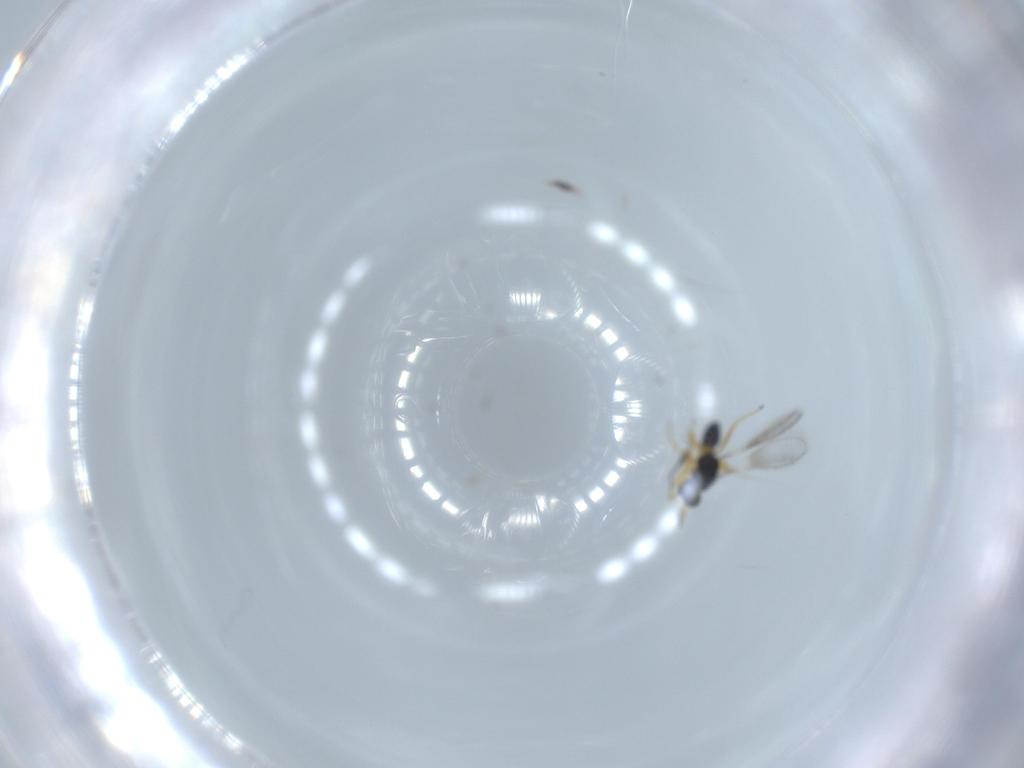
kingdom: Animalia
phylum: Arthropoda
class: Insecta
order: Hymenoptera
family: Mymaridae
